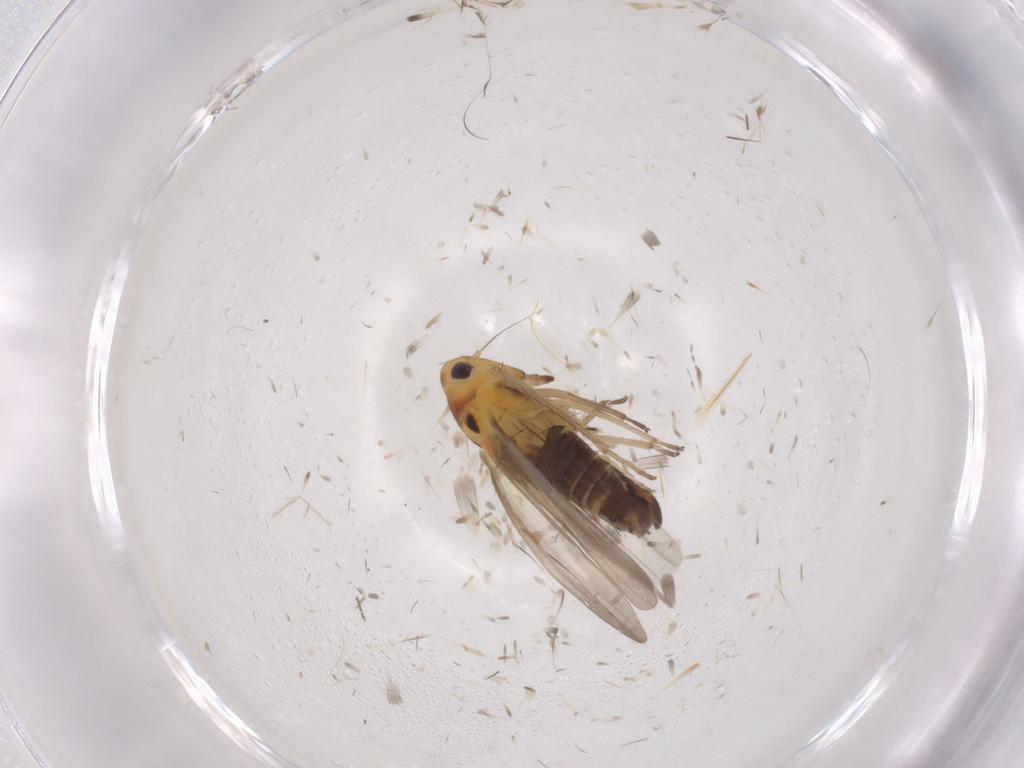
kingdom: Animalia
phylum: Arthropoda
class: Insecta
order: Hemiptera
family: Cicadellidae
